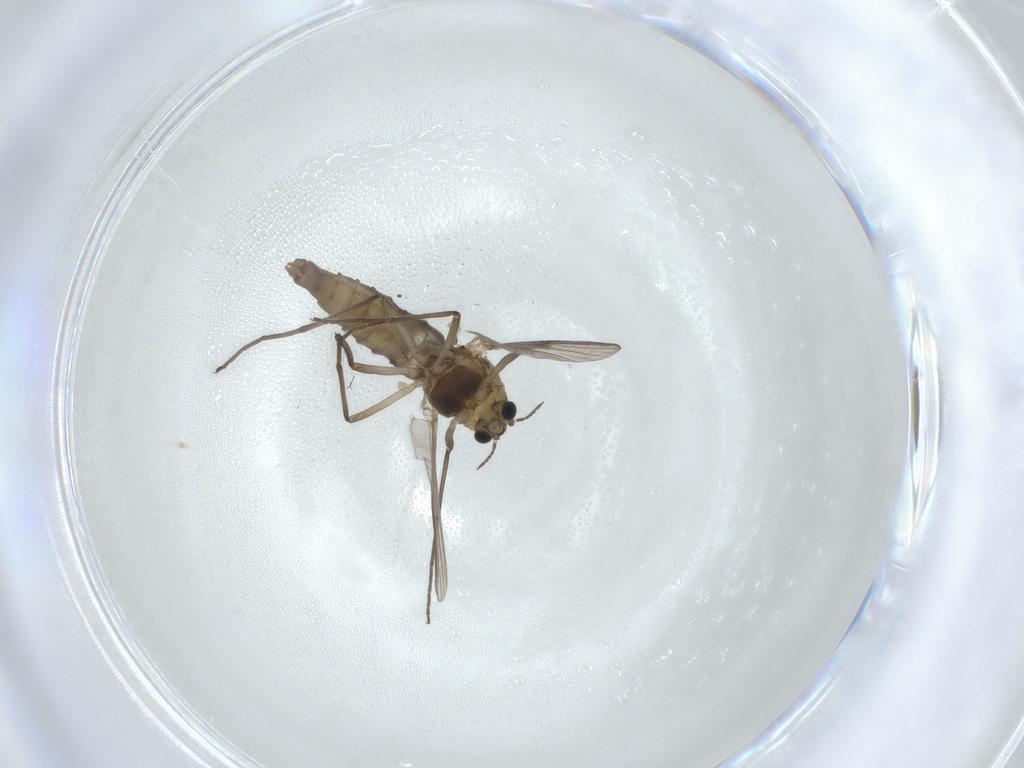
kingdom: Animalia
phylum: Arthropoda
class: Insecta
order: Diptera
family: Chironomidae
